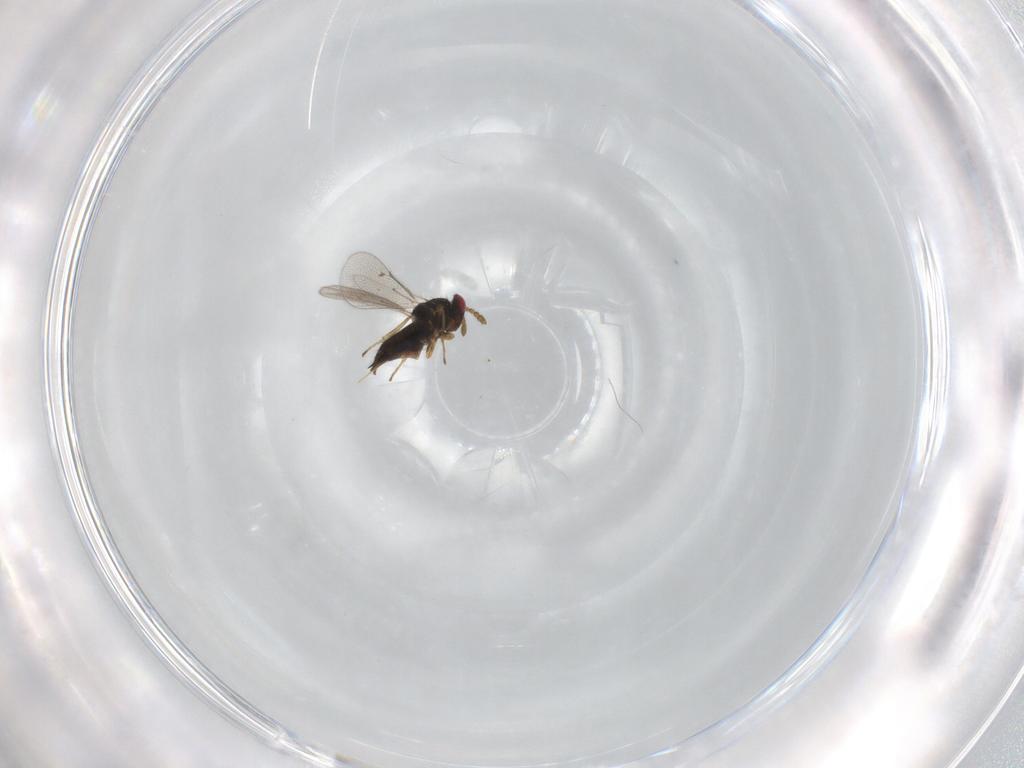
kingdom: Animalia
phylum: Arthropoda
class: Insecta
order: Hymenoptera
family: Eulophidae
